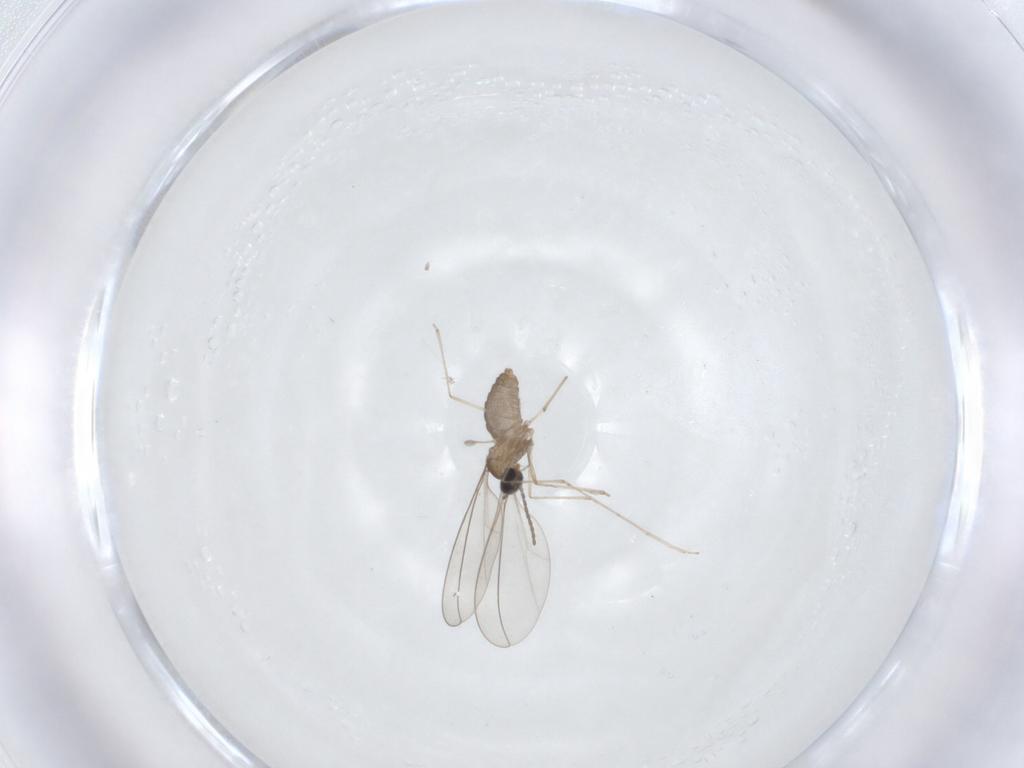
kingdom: Animalia
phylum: Arthropoda
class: Insecta
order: Diptera
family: Cecidomyiidae
